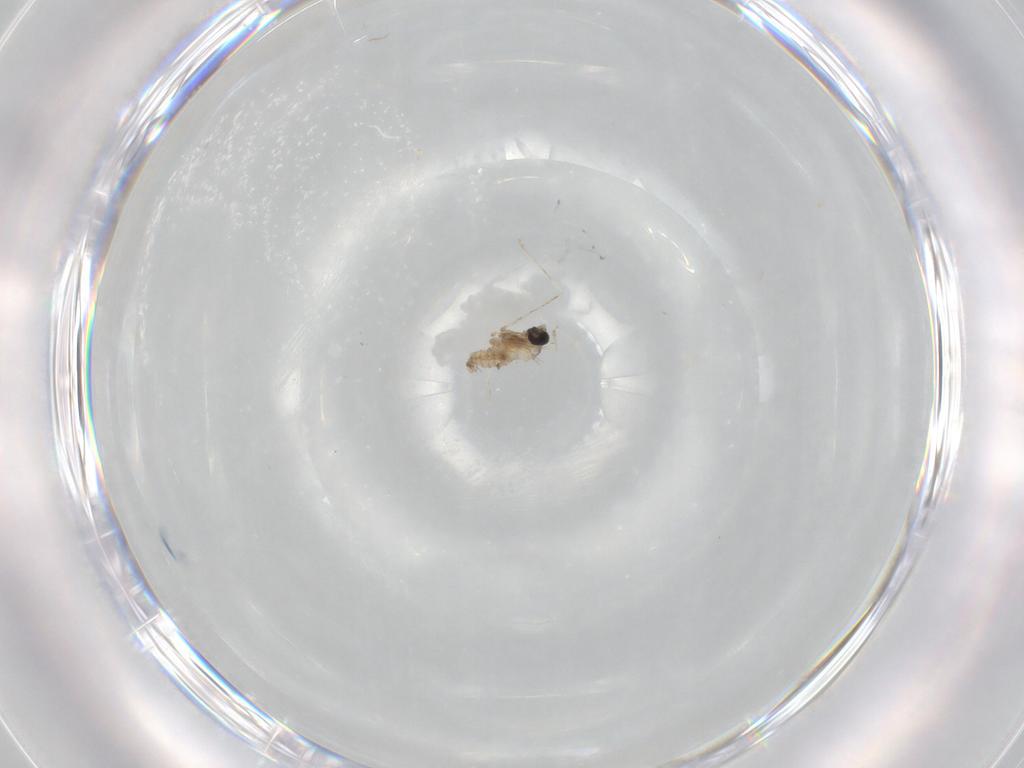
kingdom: Animalia
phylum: Arthropoda
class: Insecta
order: Diptera
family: Cecidomyiidae
